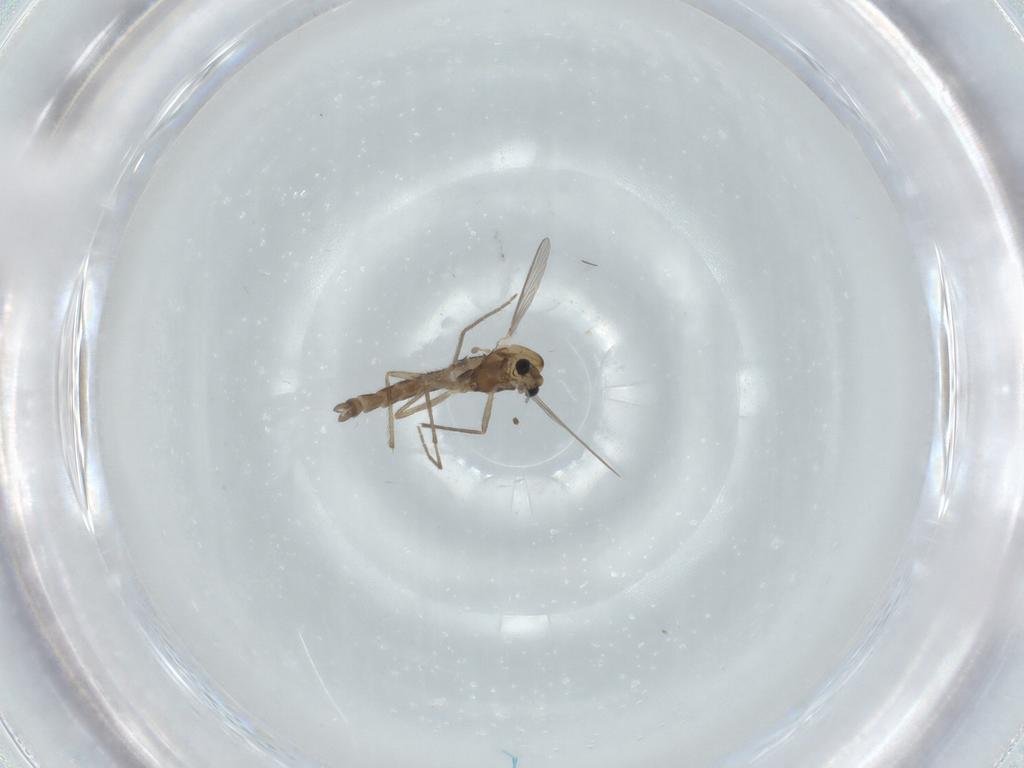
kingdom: Animalia
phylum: Arthropoda
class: Insecta
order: Diptera
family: Chironomidae
